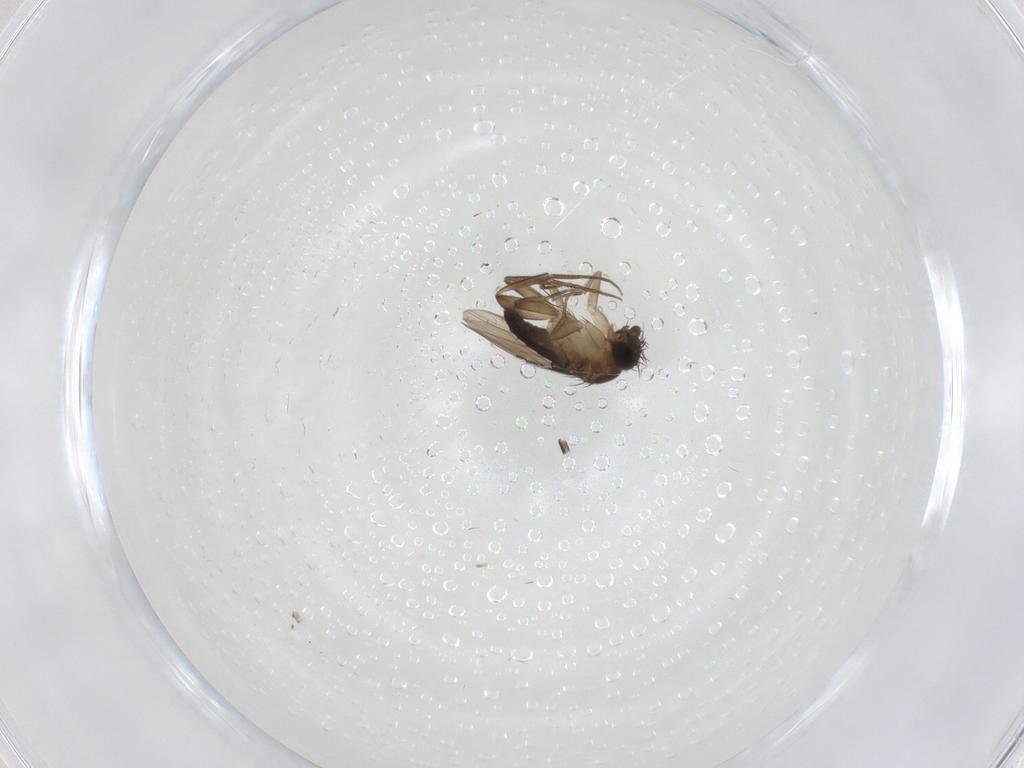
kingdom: Animalia
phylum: Arthropoda
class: Insecta
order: Diptera
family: Phoridae
